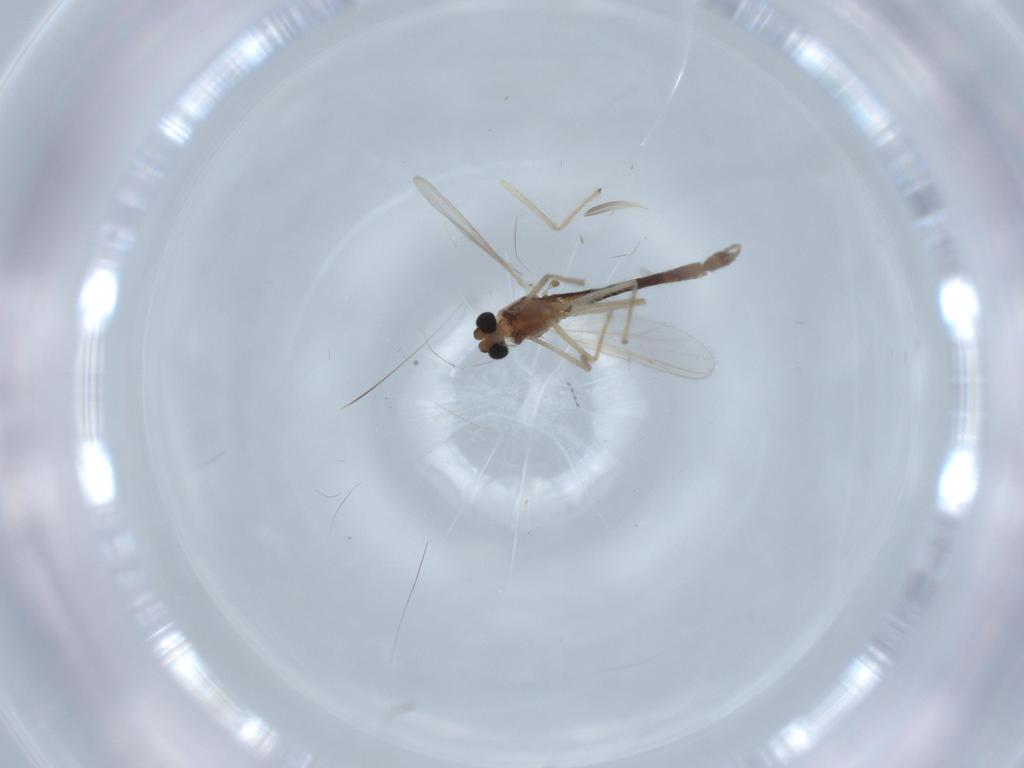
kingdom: Animalia
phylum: Arthropoda
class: Insecta
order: Diptera
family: Chironomidae
